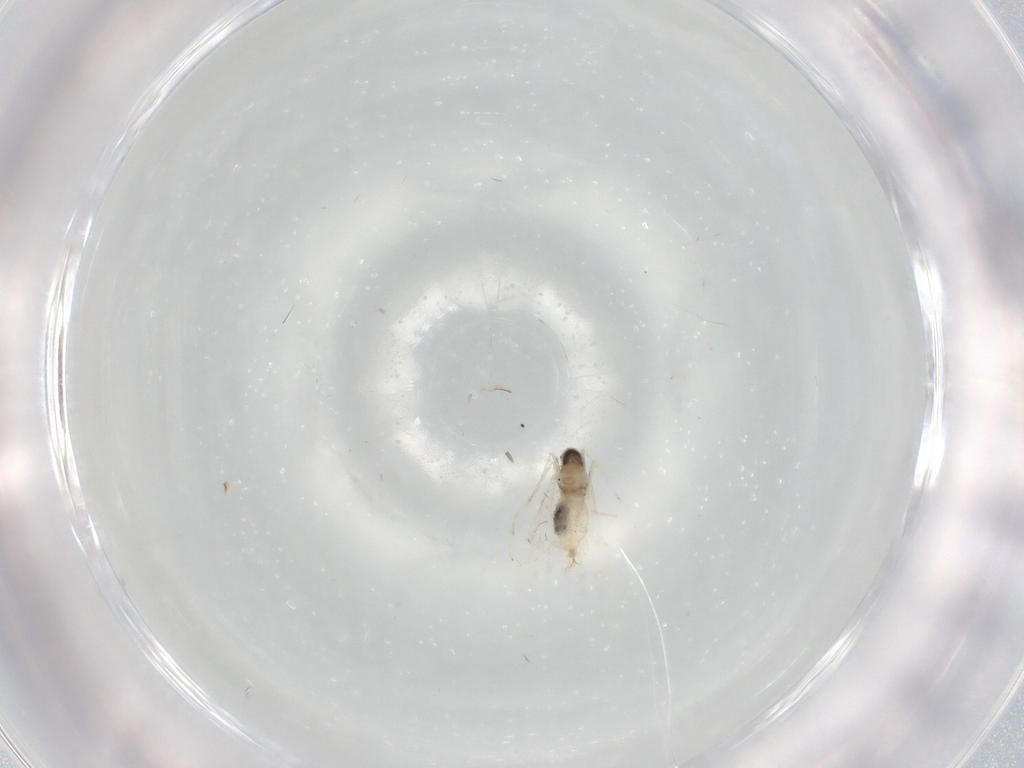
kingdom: Animalia
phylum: Arthropoda
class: Insecta
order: Diptera
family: Cecidomyiidae
